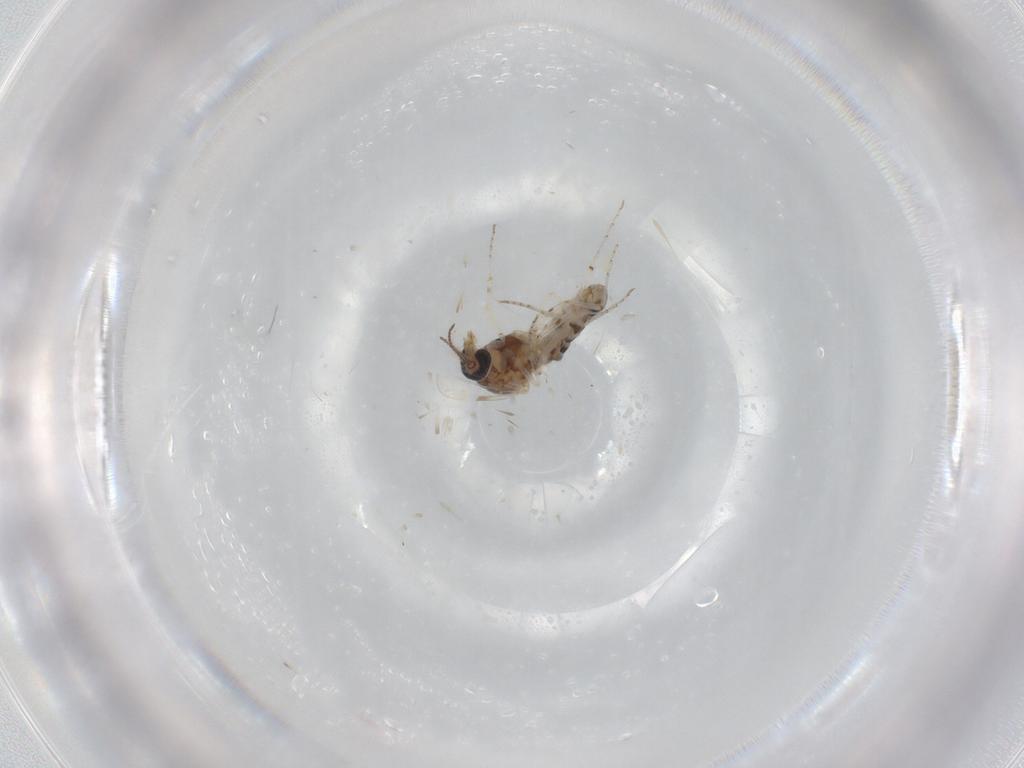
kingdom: Animalia
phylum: Arthropoda
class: Insecta
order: Diptera
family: Ceratopogonidae
